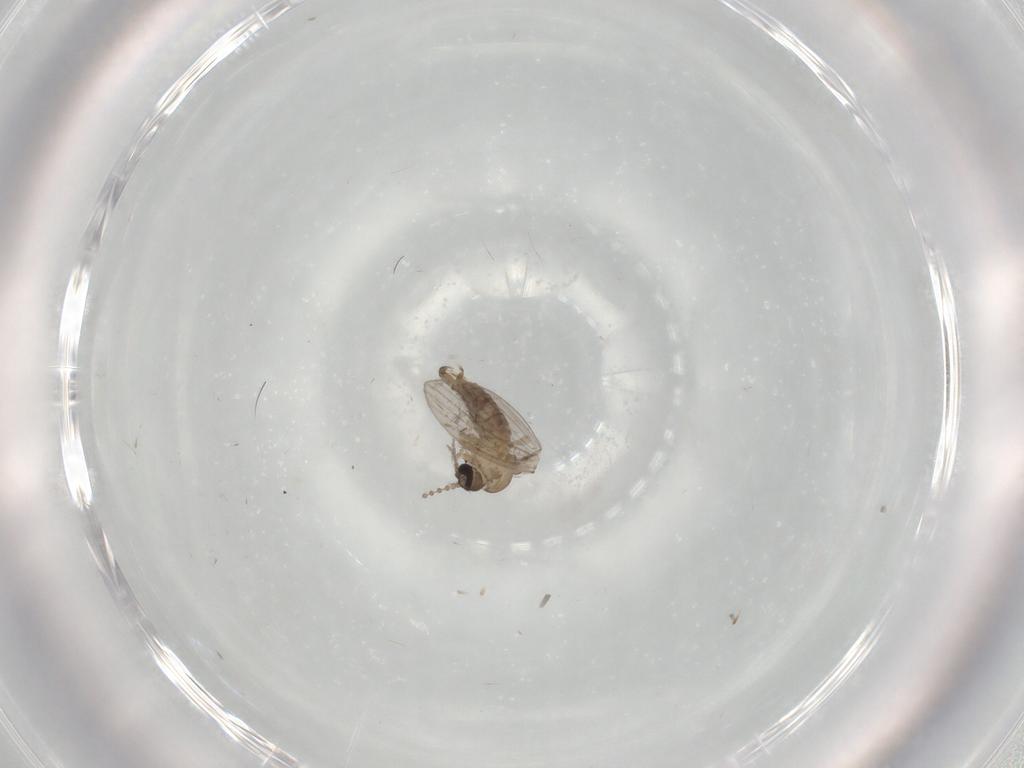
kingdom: Animalia
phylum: Arthropoda
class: Insecta
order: Diptera
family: Psychodidae
